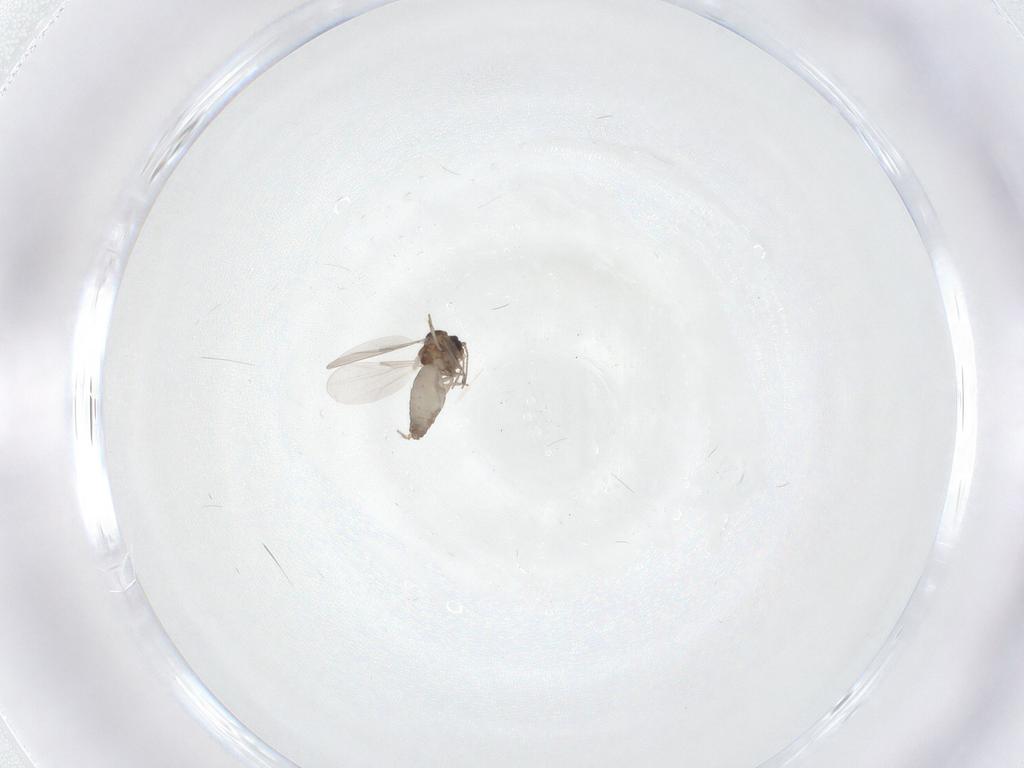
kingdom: Animalia
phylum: Arthropoda
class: Insecta
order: Diptera
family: Ceratopogonidae
